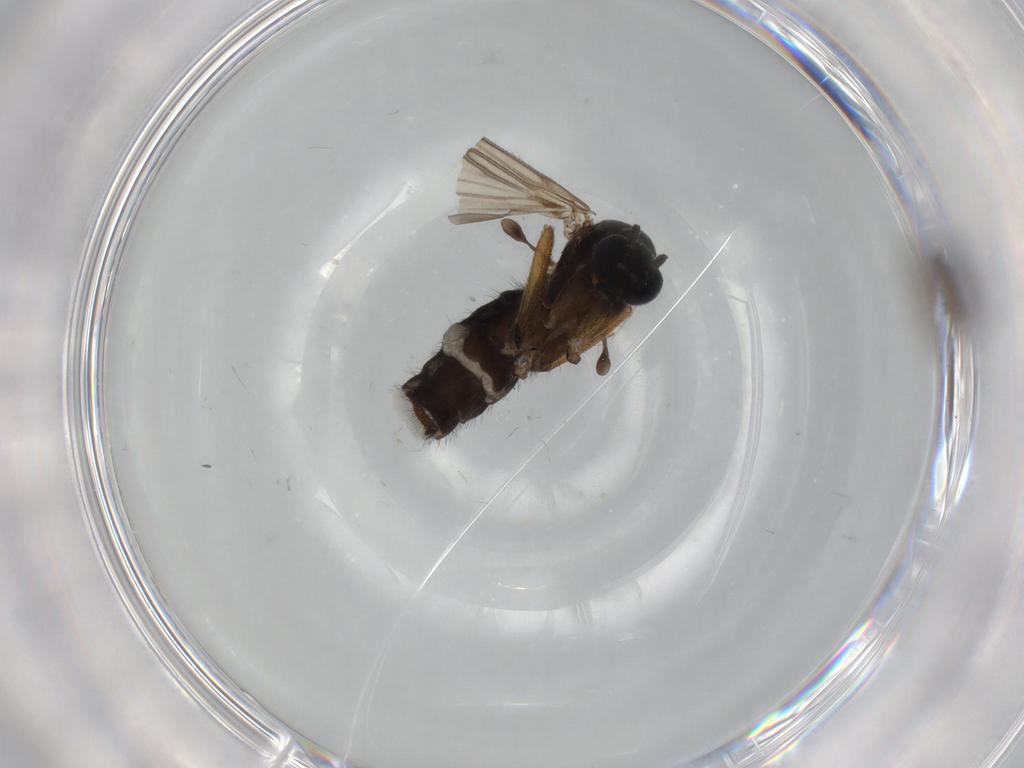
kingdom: Animalia
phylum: Arthropoda
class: Insecta
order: Diptera
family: Sciaridae
